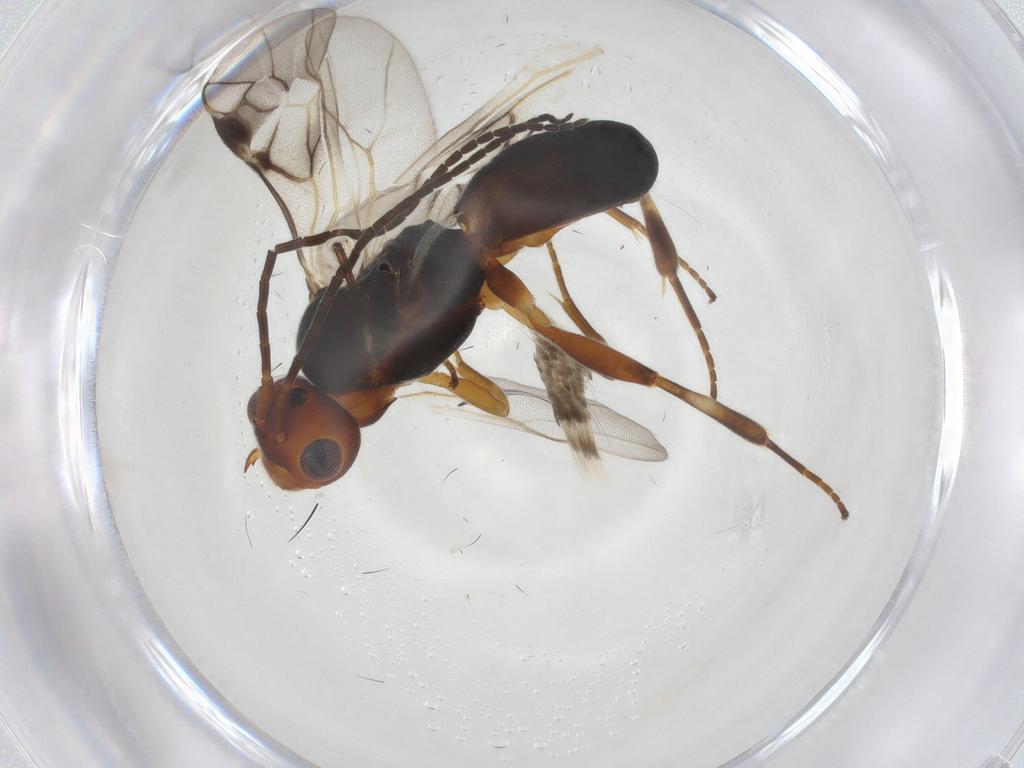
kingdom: Animalia
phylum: Arthropoda
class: Insecta
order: Hymenoptera
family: Braconidae
